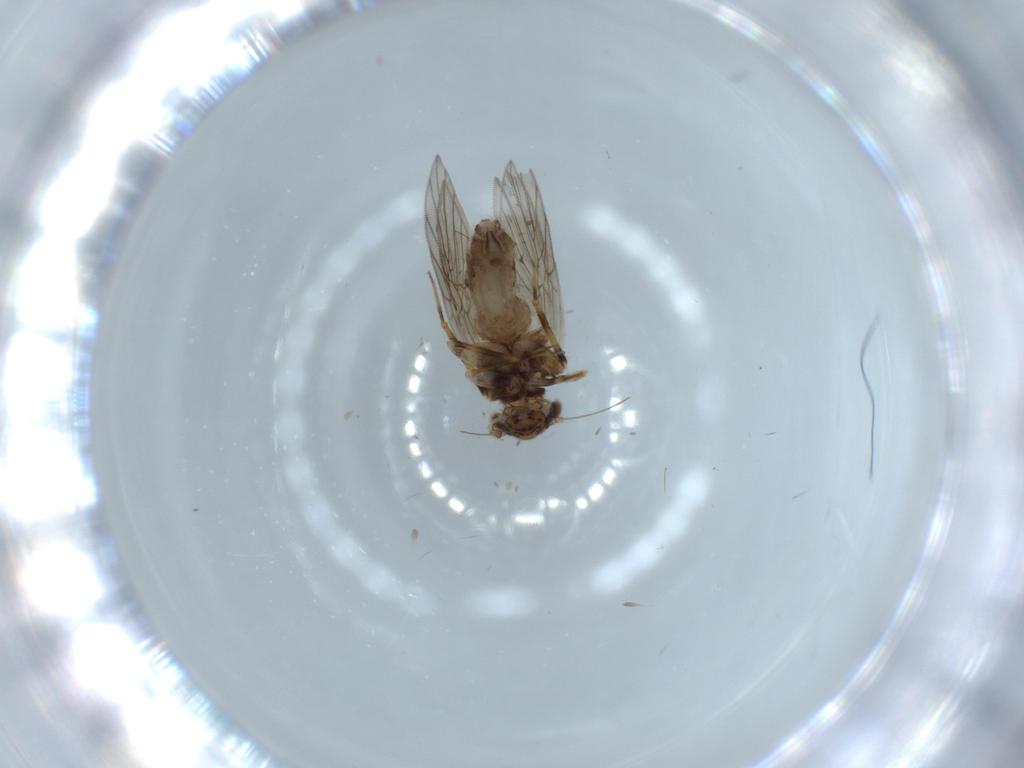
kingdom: Animalia
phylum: Arthropoda
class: Insecta
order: Psocodea
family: Lepidopsocidae
